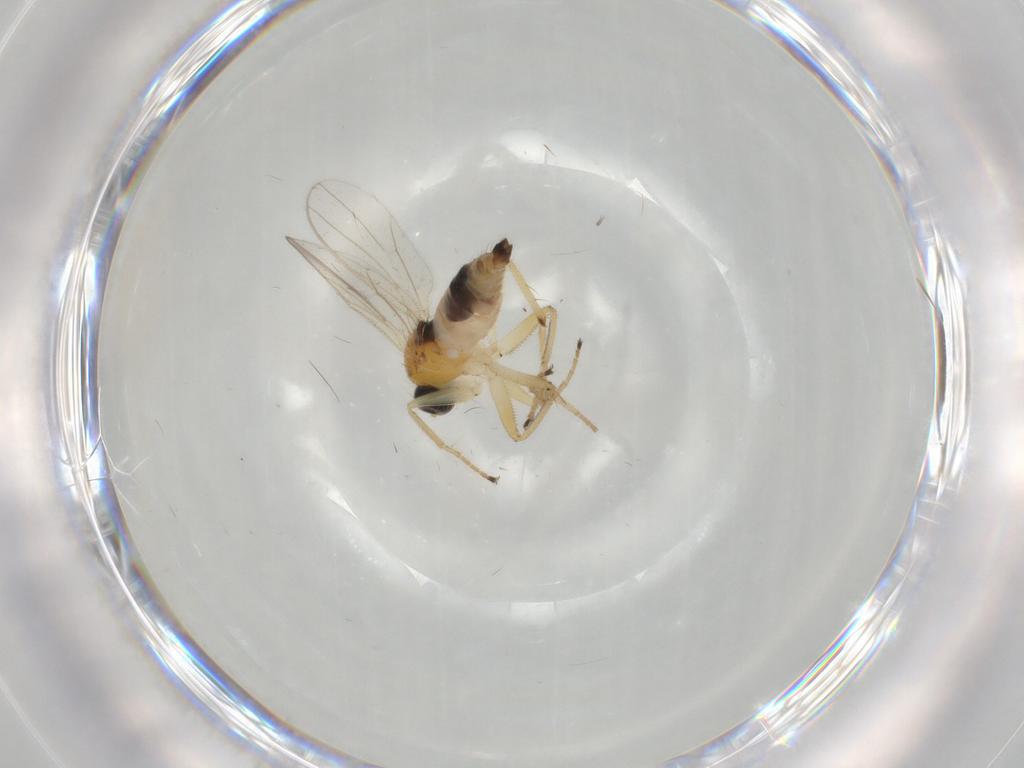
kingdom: Animalia
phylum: Arthropoda
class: Insecta
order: Diptera
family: Hybotidae
